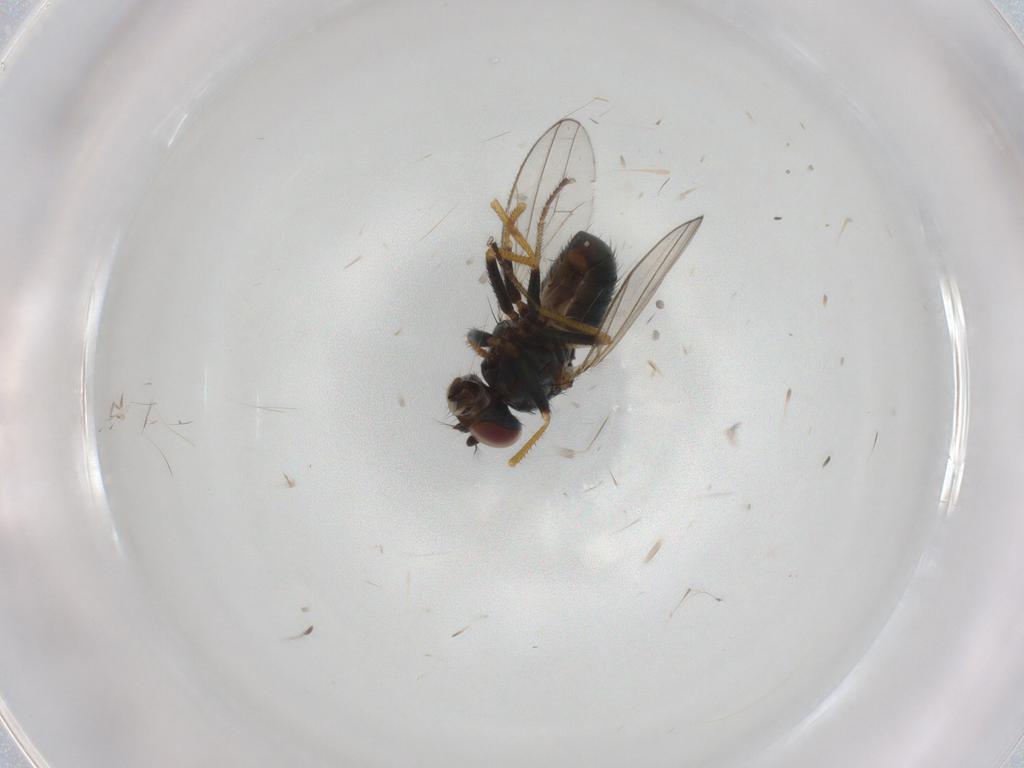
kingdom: Animalia
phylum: Arthropoda
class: Insecta
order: Diptera
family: Ephydridae
